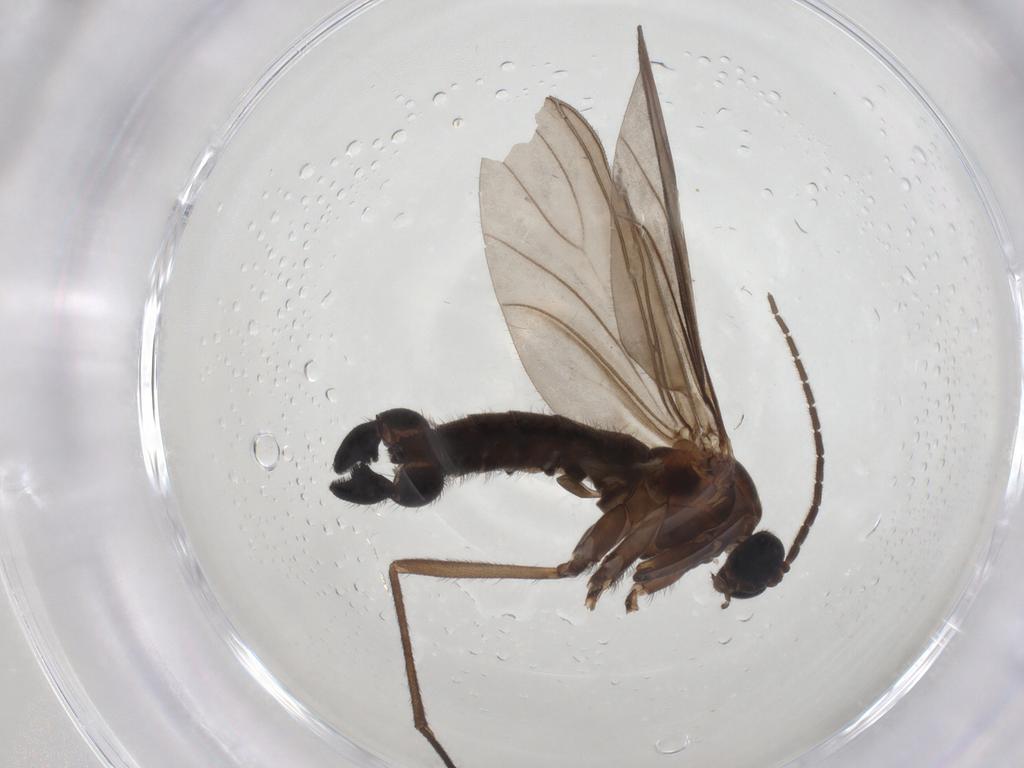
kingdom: Animalia
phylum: Arthropoda
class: Insecta
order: Diptera
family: Sciaridae
